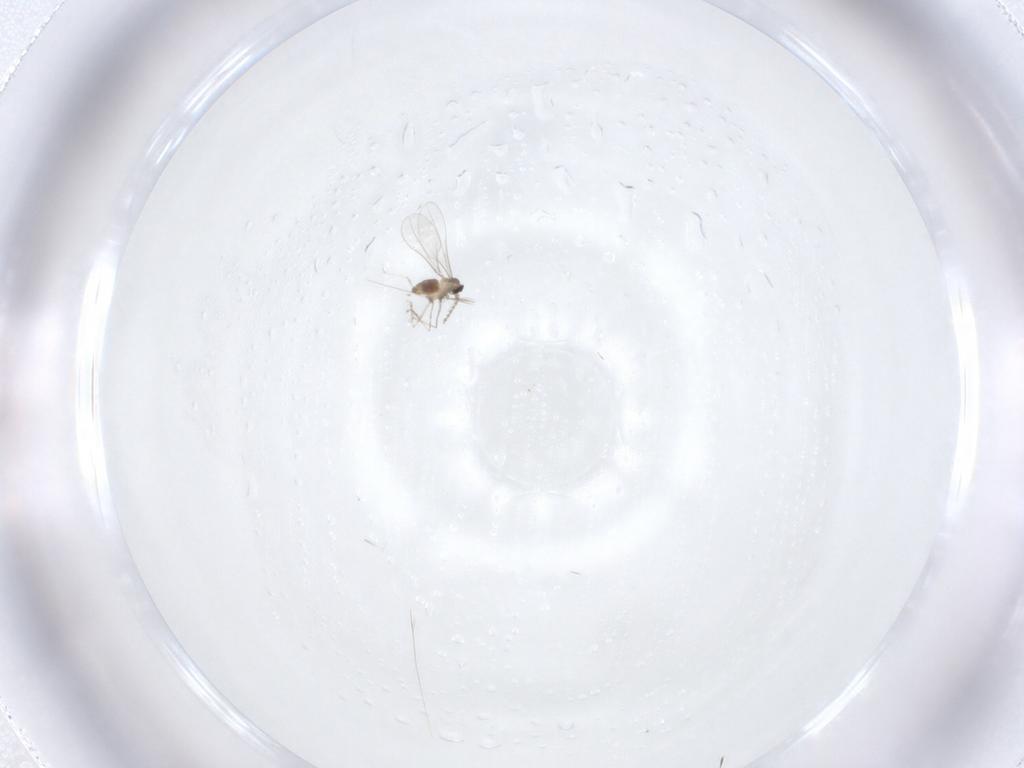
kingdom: Animalia
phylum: Arthropoda
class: Insecta
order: Diptera
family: Cecidomyiidae
